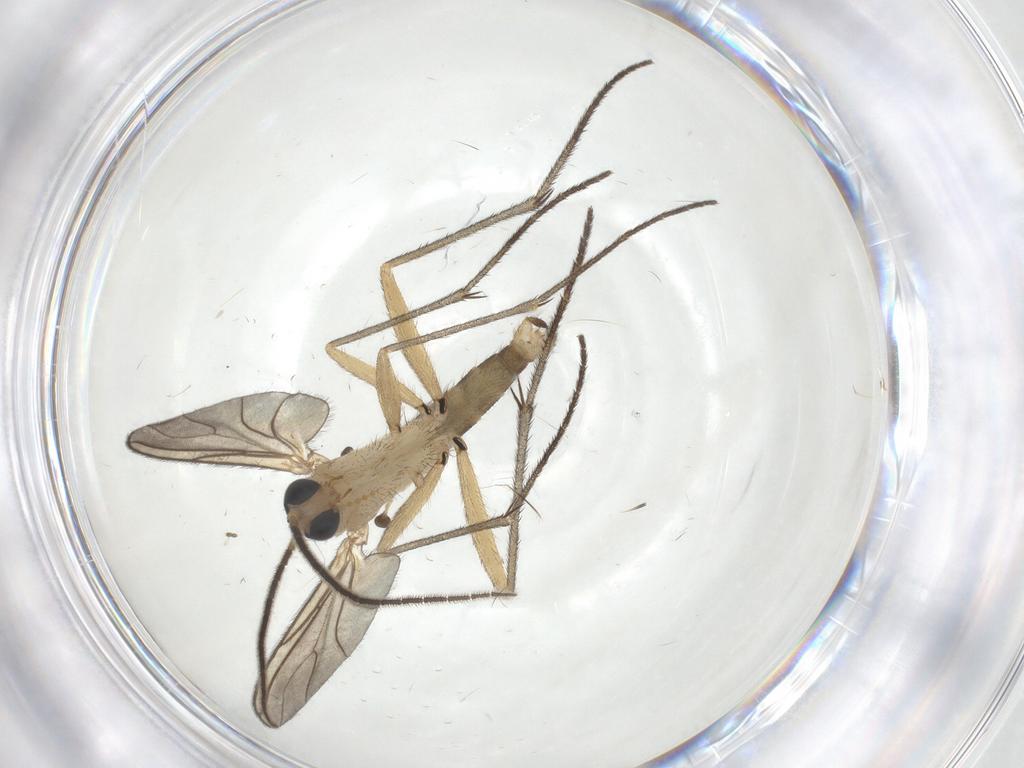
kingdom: Animalia
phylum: Arthropoda
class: Insecta
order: Diptera
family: Sciaridae
